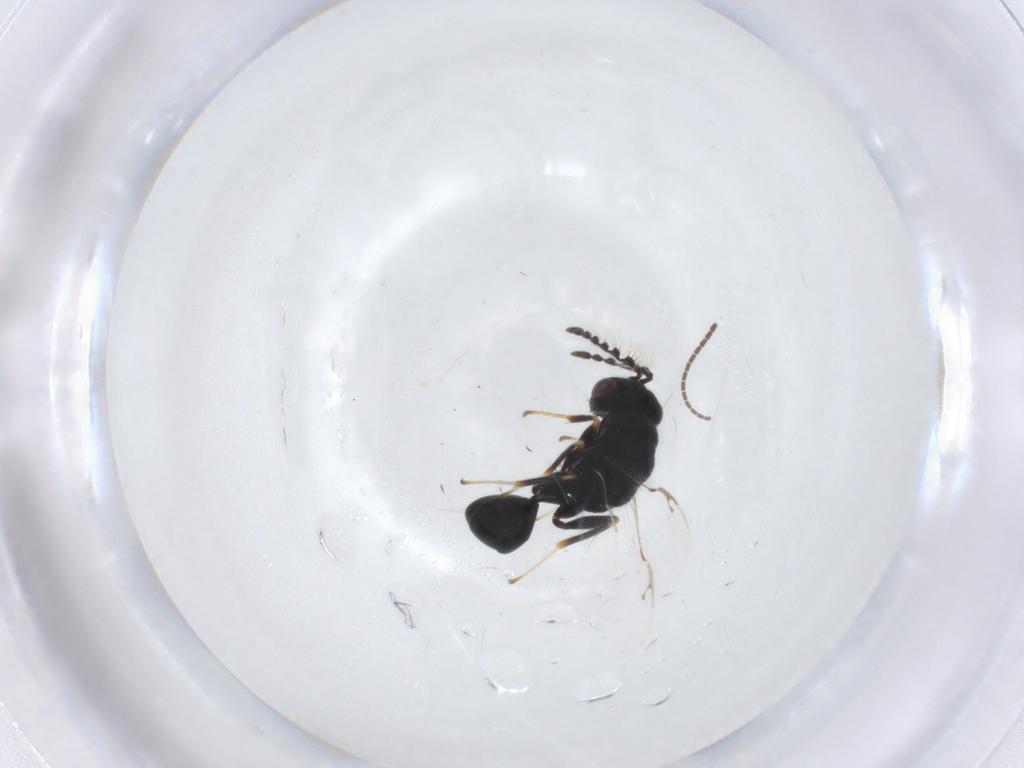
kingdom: Animalia
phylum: Arthropoda
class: Insecta
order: Hymenoptera
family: Eurytomidae
